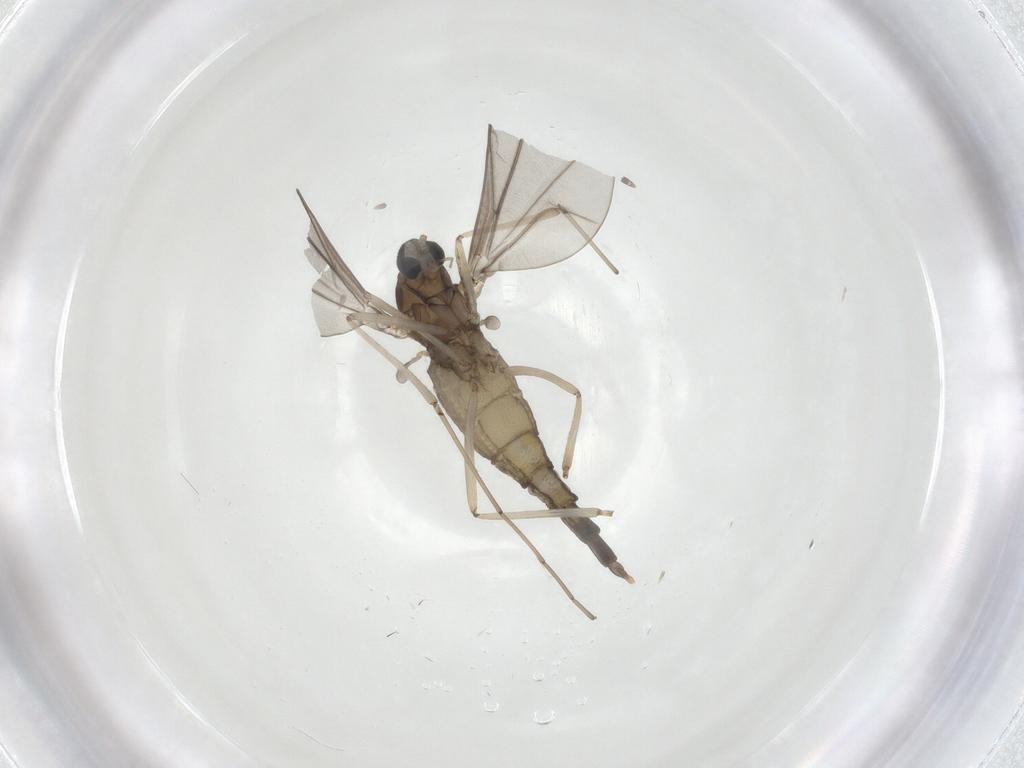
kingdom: Animalia
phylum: Arthropoda
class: Insecta
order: Diptera
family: Cecidomyiidae
